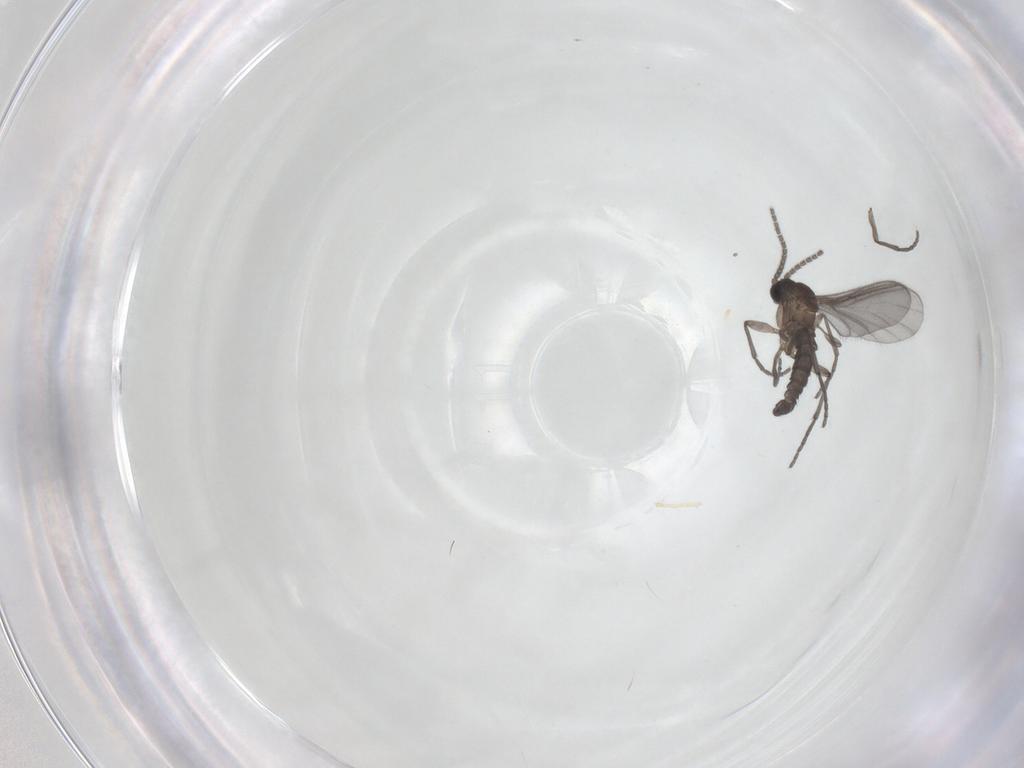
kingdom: Animalia
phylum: Arthropoda
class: Insecta
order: Diptera
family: Sciaridae
